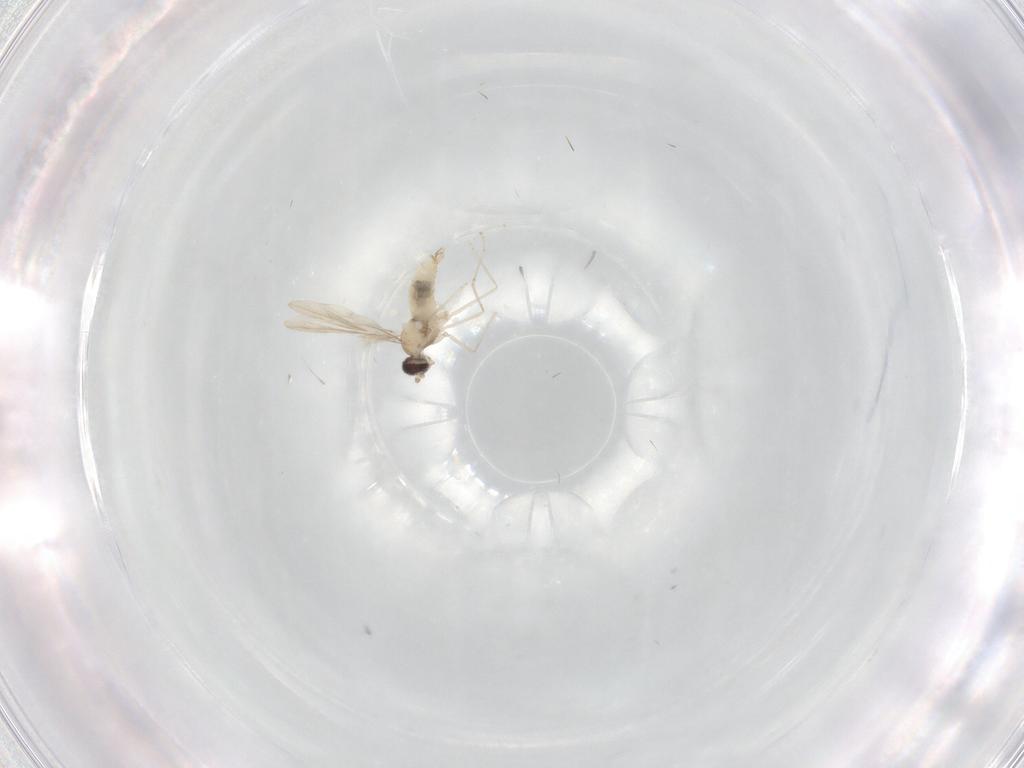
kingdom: Animalia
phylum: Arthropoda
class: Insecta
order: Diptera
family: Phoridae
